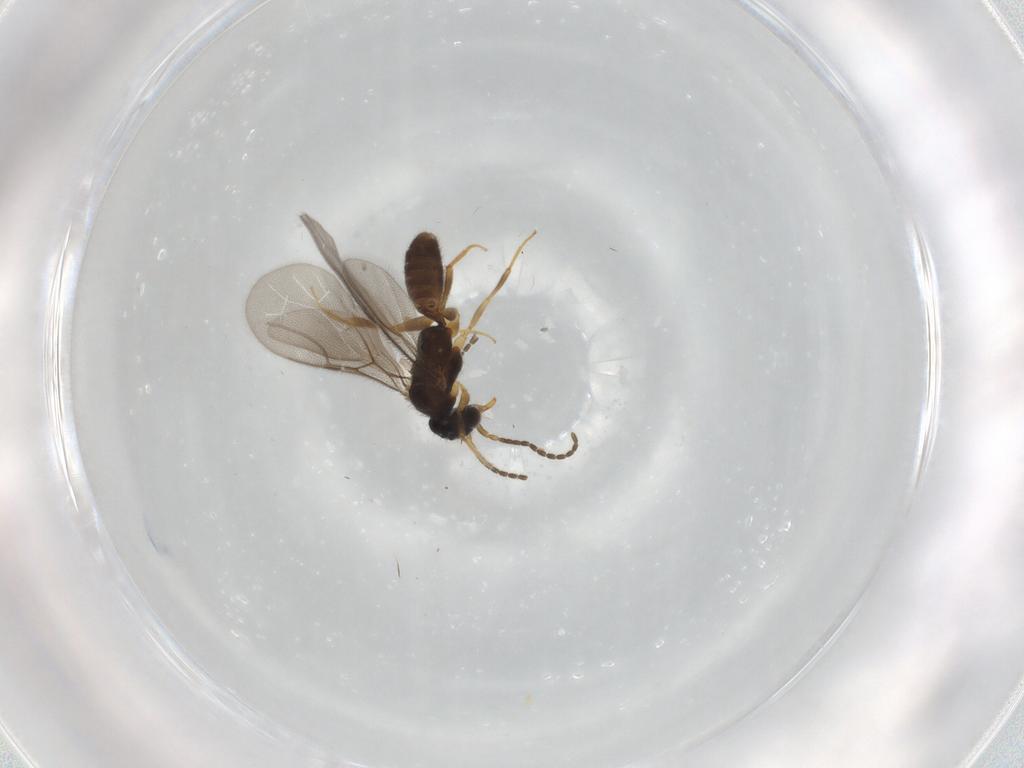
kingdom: Animalia
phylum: Arthropoda
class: Insecta
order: Hymenoptera
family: Bethylidae
